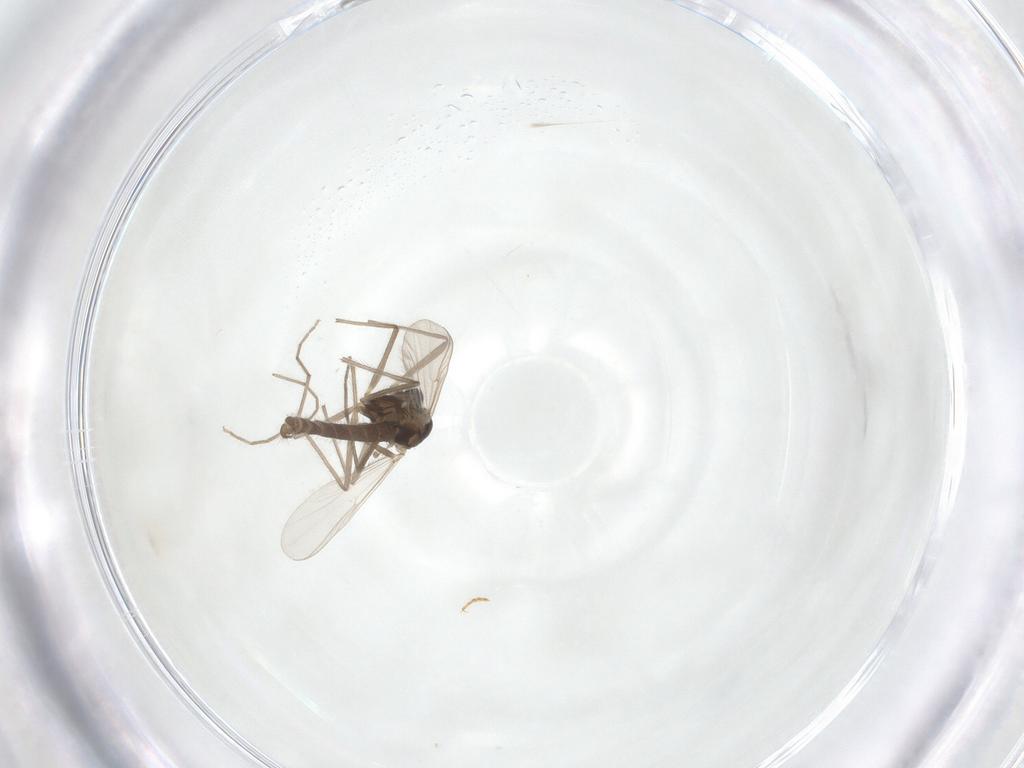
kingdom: Animalia
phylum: Arthropoda
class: Insecta
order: Diptera
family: Chironomidae
